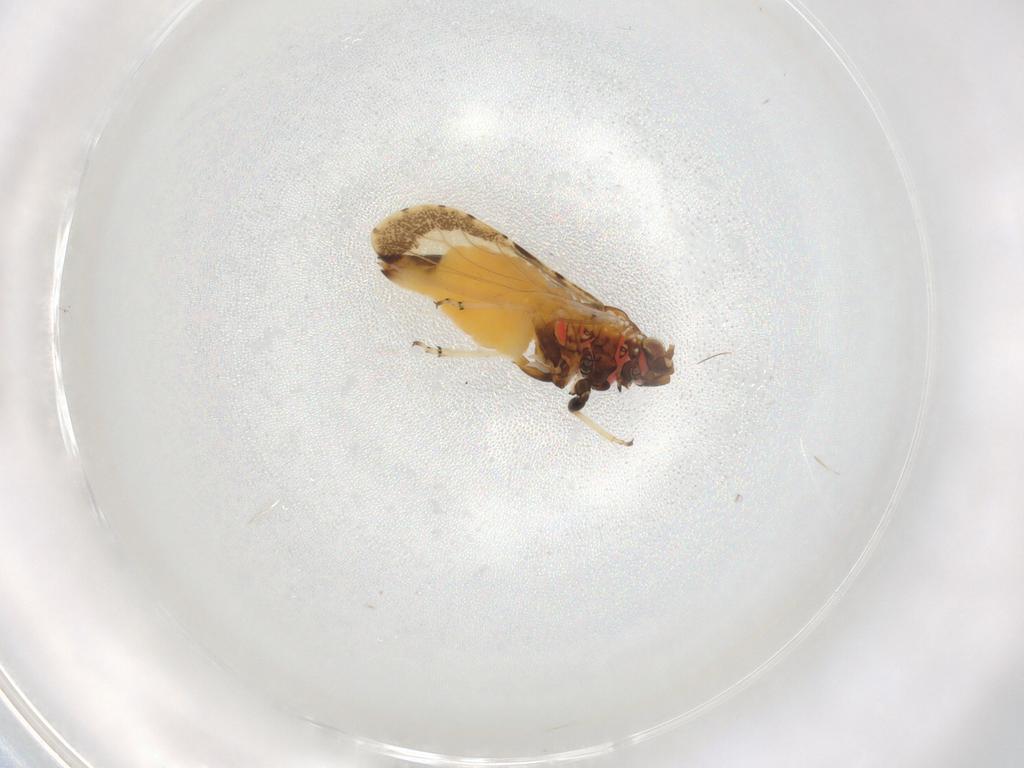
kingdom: Animalia
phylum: Arthropoda
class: Insecta
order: Hemiptera
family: Psyllidae
